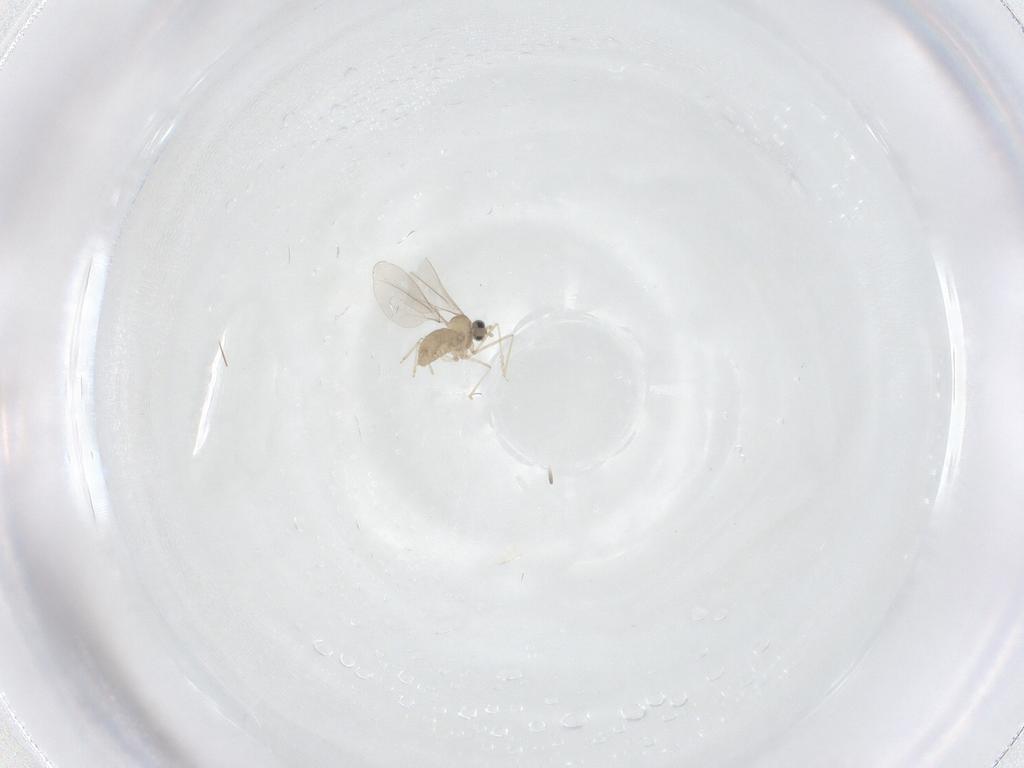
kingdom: Animalia
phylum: Arthropoda
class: Insecta
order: Diptera
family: Cecidomyiidae
